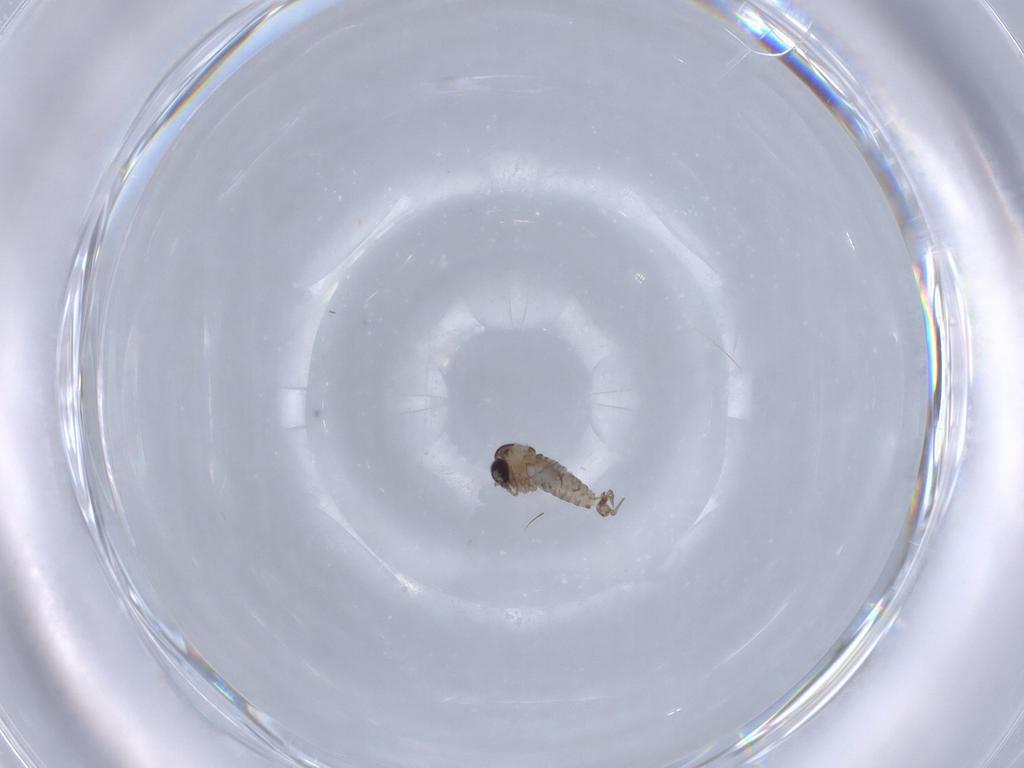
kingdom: Animalia
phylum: Arthropoda
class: Insecta
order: Diptera
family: Psychodidae
